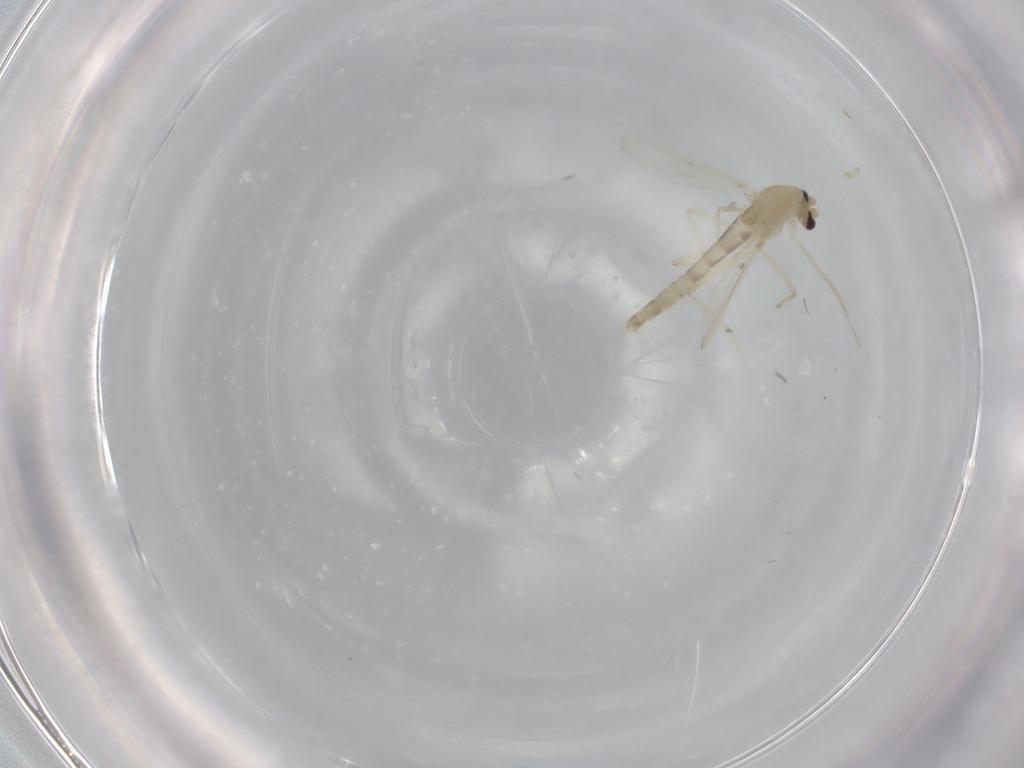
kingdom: Animalia
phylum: Arthropoda
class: Insecta
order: Diptera
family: Ceratopogonidae
